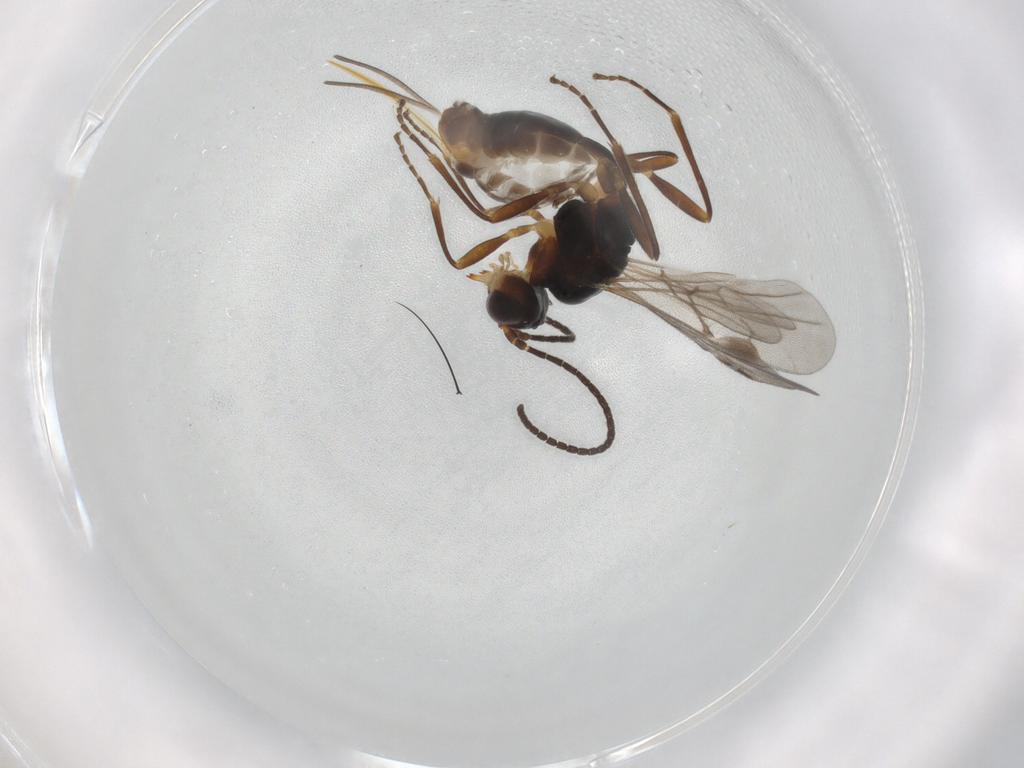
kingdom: Animalia
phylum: Arthropoda
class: Insecta
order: Hymenoptera
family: Braconidae
